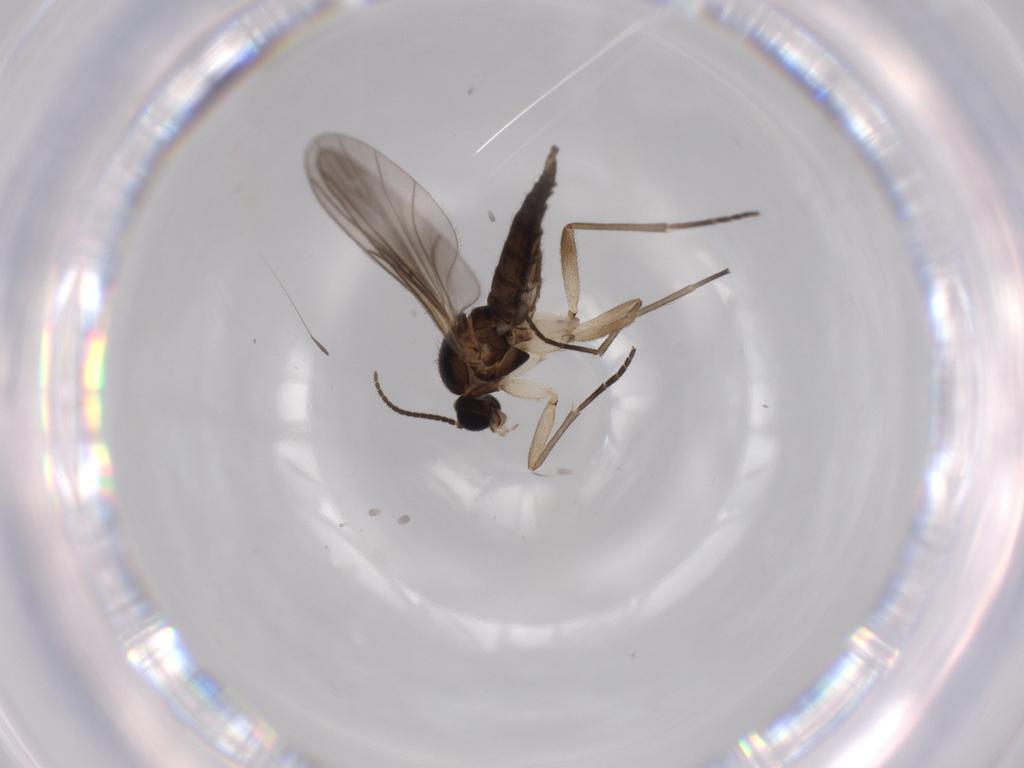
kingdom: Animalia
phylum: Arthropoda
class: Insecta
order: Diptera
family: Sciaridae
